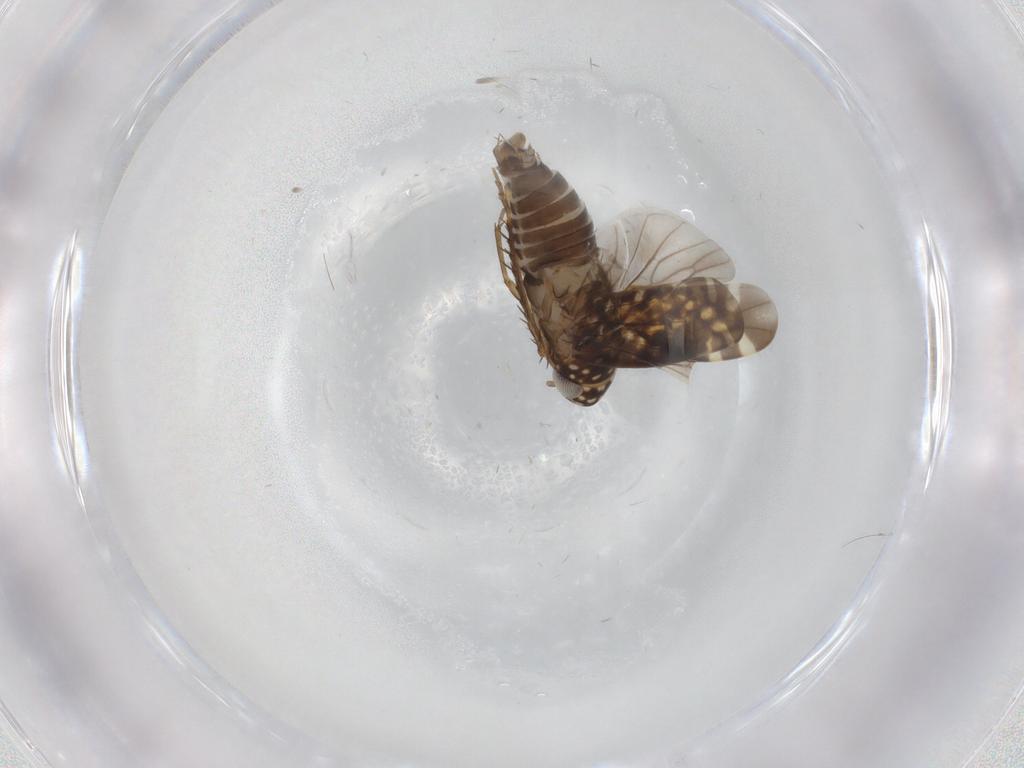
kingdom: Animalia
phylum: Arthropoda
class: Insecta
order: Hemiptera
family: Cicadellidae
